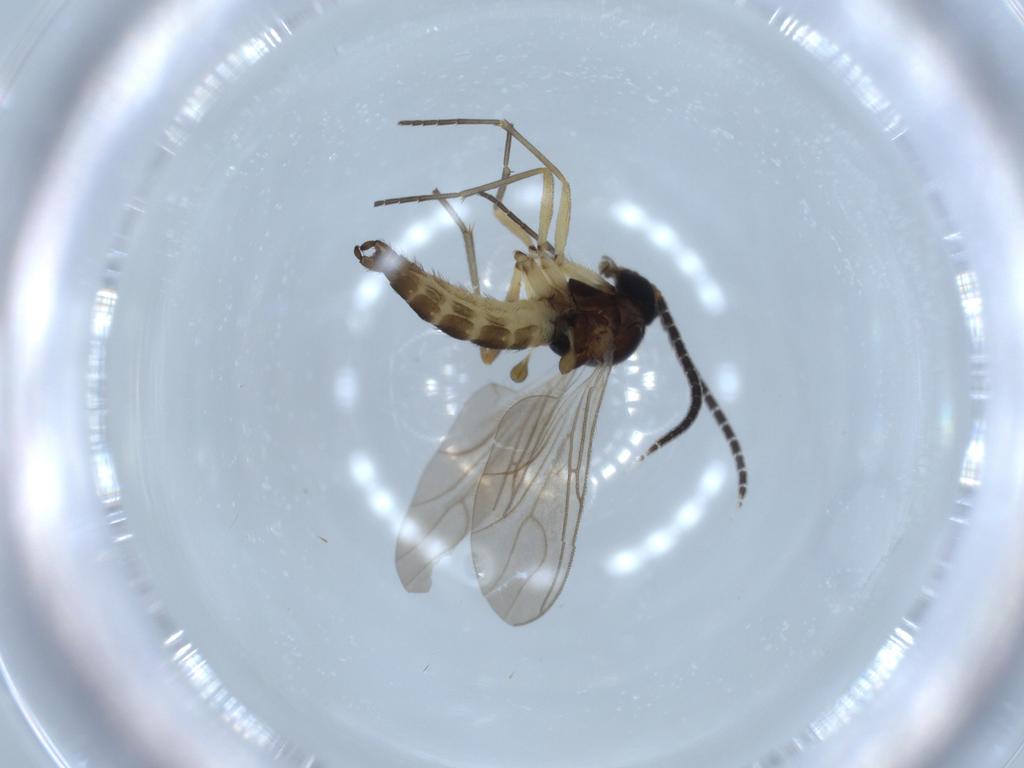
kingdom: Animalia
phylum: Arthropoda
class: Insecta
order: Diptera
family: Sciaridae
